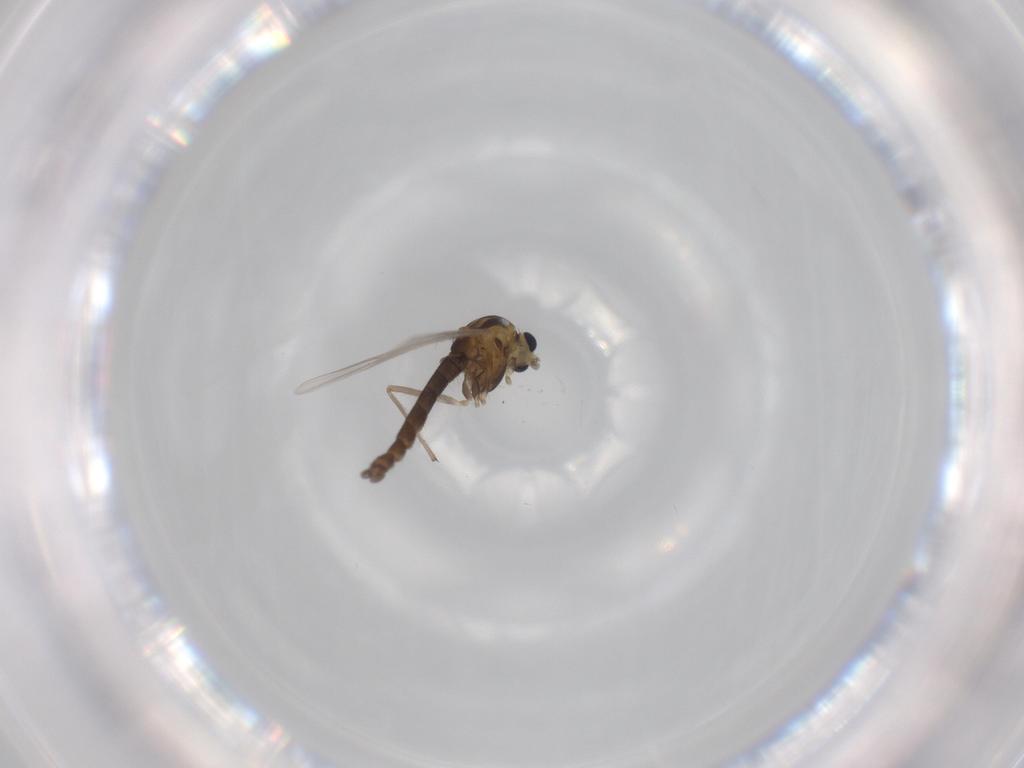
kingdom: Animalia
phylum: Arthropoda
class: Insecta
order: Diptera
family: Chironomidae
